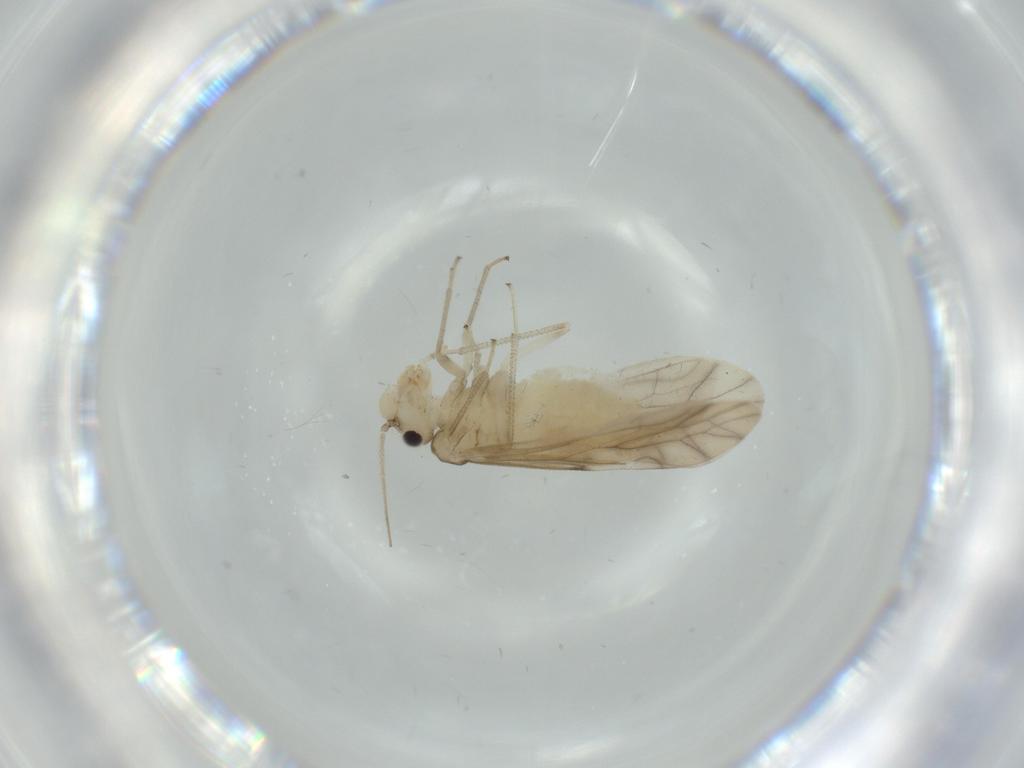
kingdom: Animalia
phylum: Arthropoda
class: Insecta
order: Psocodea
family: Caeciliusidae
